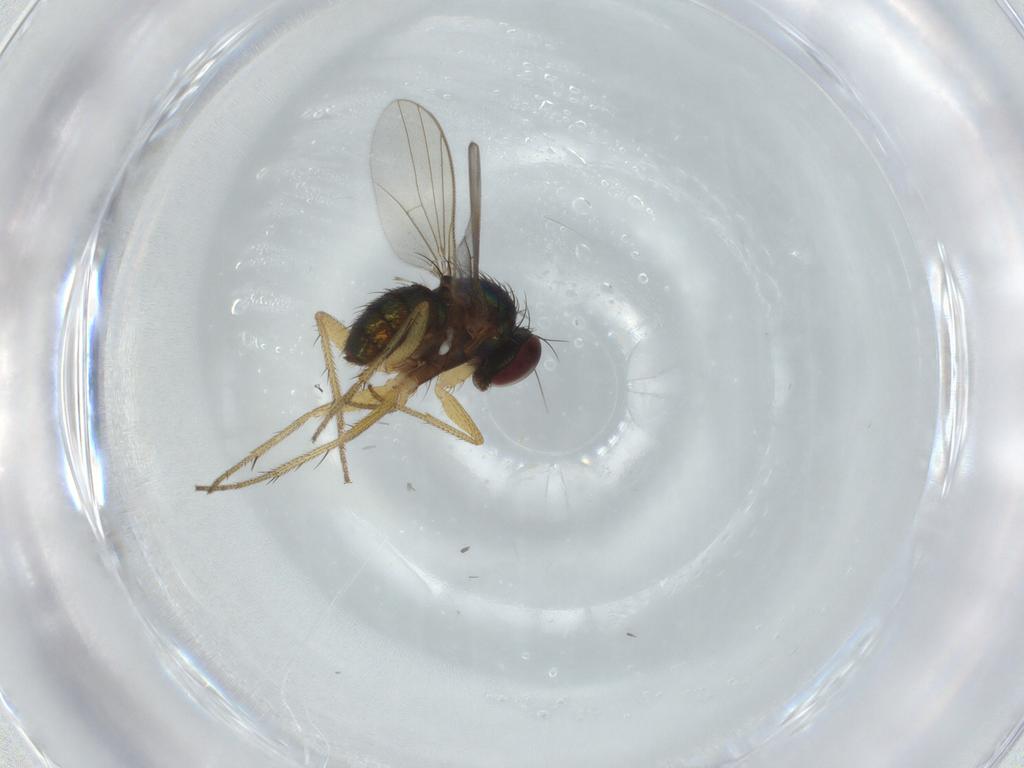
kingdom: Animalia
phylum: Arthropoda
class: Insecta
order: Diptera
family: Dolichopodidae
